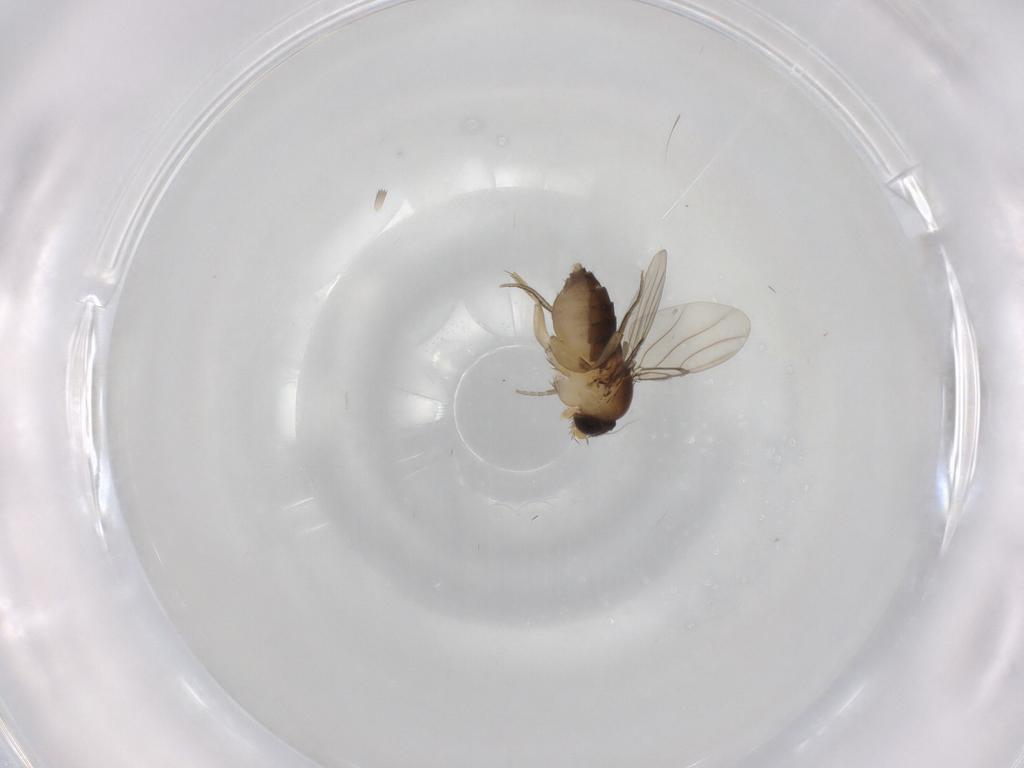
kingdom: Animalia
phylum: Arthropoda
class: Insecta
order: Diptera
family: Phoridae
